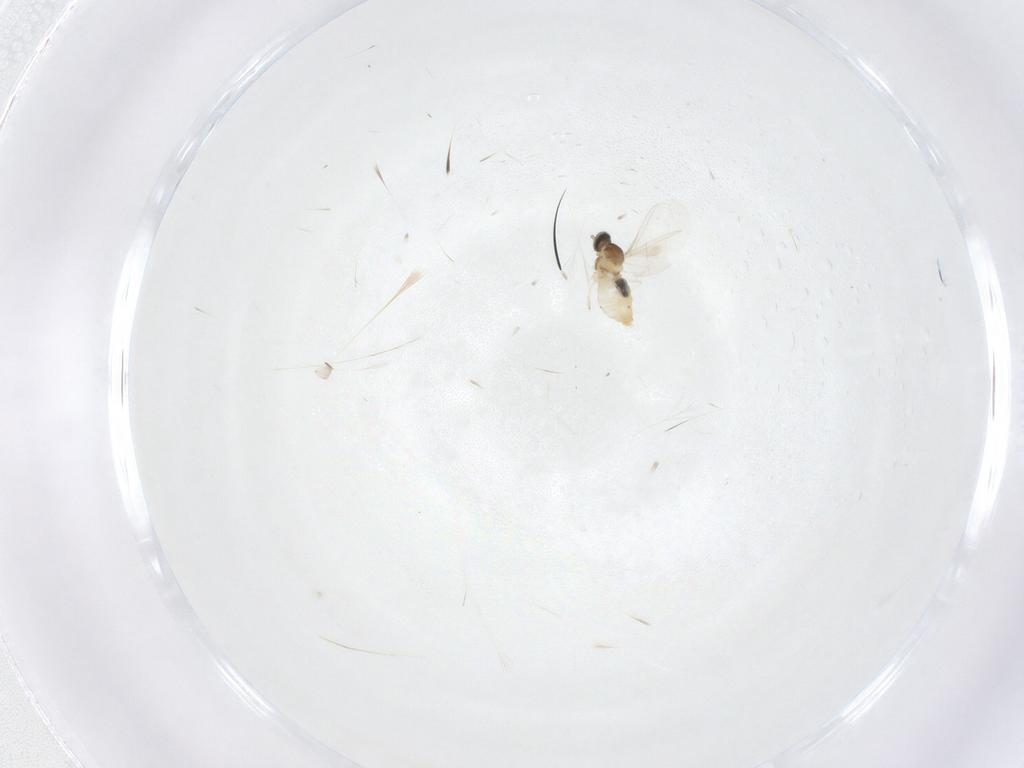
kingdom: Animalia
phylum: Arthropoda
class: Insecta
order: Diptera
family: Cecidomyiidae
